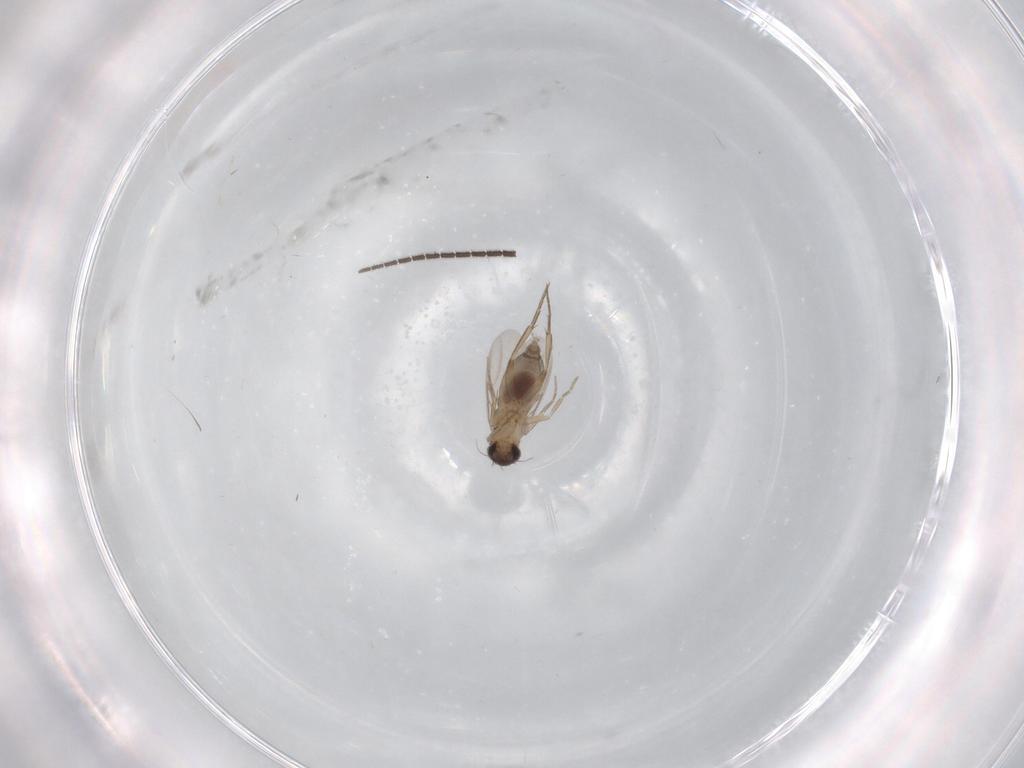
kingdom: Animalia
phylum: Arthropoda
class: Insecta
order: Diptera
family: Phoridae
